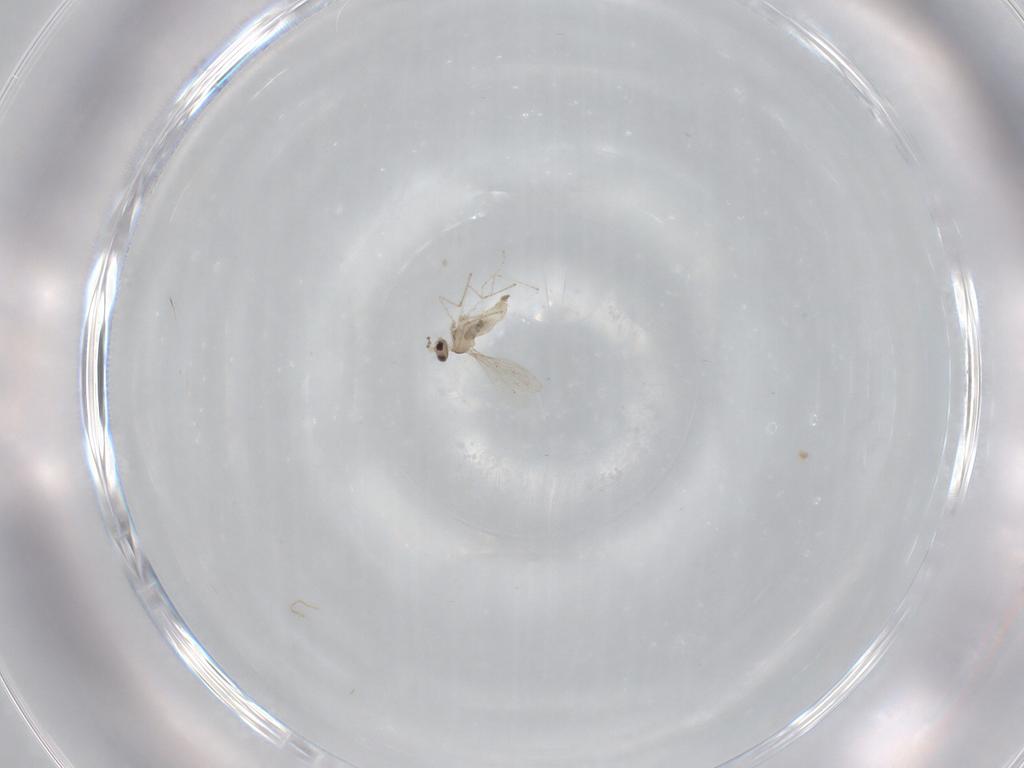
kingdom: Animalia
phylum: Arthropoda
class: Insecta
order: Diptera
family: Cecidomyiidae
